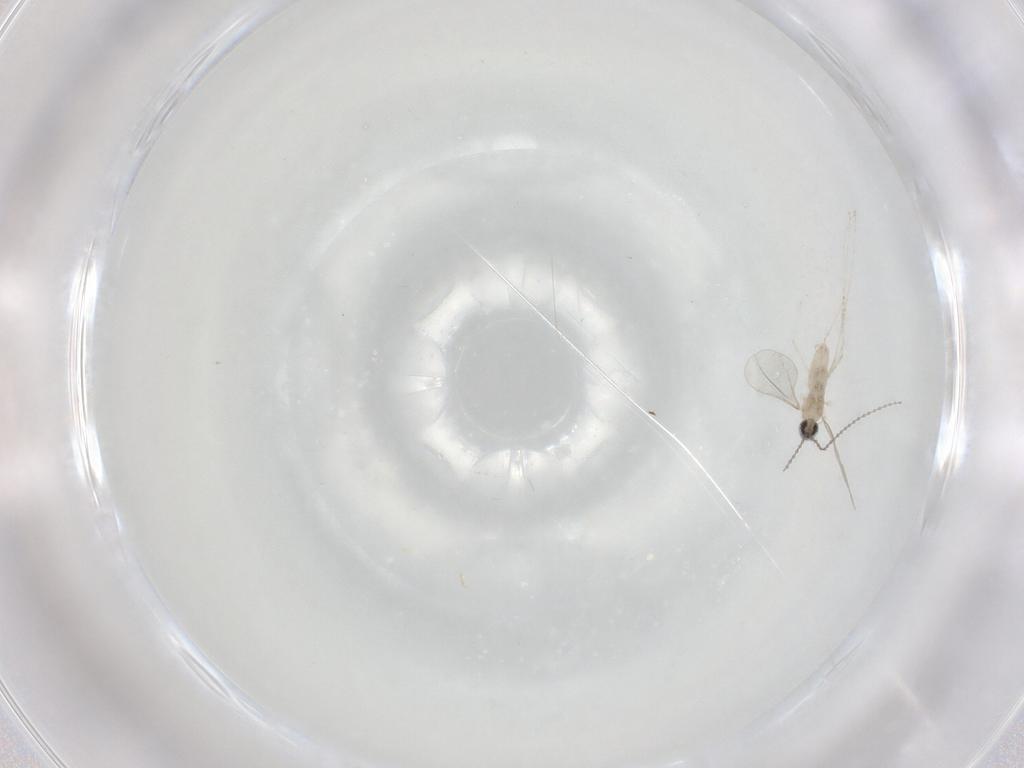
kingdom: Animalia
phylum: Arthropoda
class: Insecta
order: Diptera
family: Cecidomyiidae
